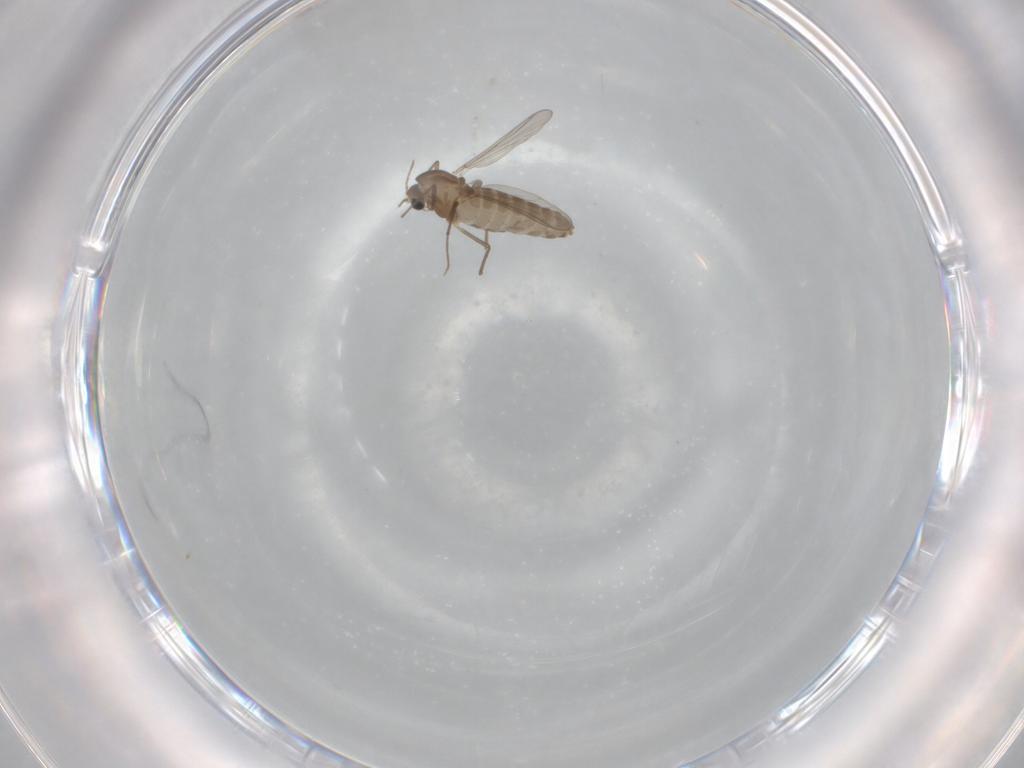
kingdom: Animalia
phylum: Arthropoda
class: Insecta
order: Diptera
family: Chironomidae
